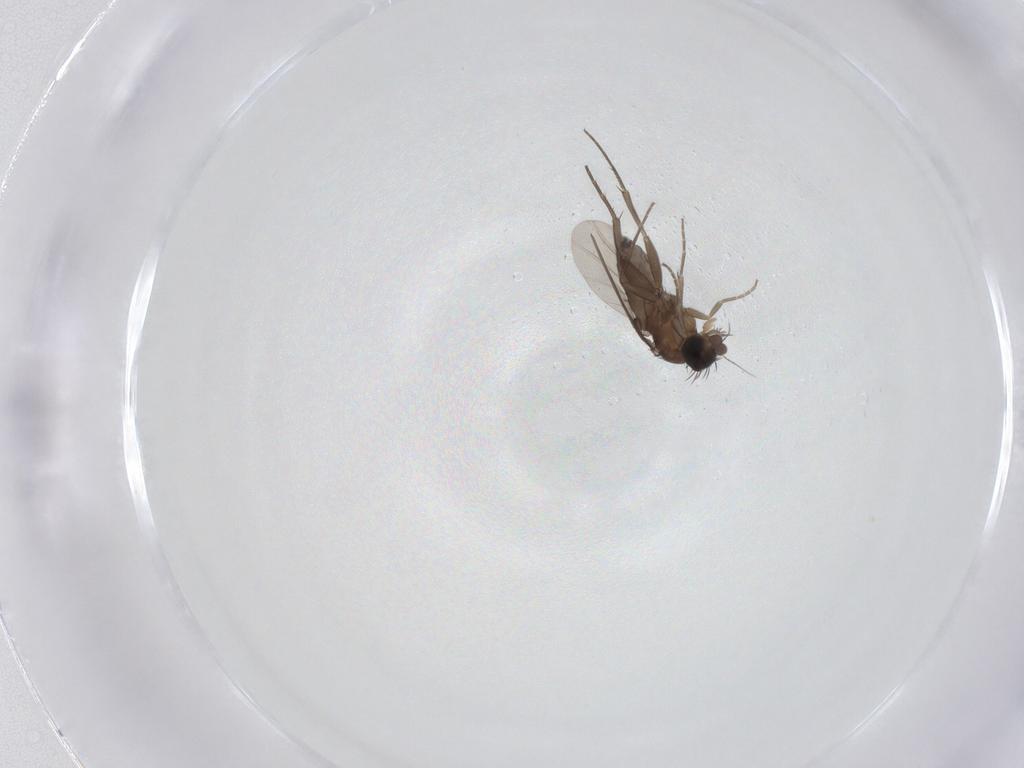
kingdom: Animalia
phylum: Arthropoda
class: Insecta
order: Diptera
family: Phoridae
